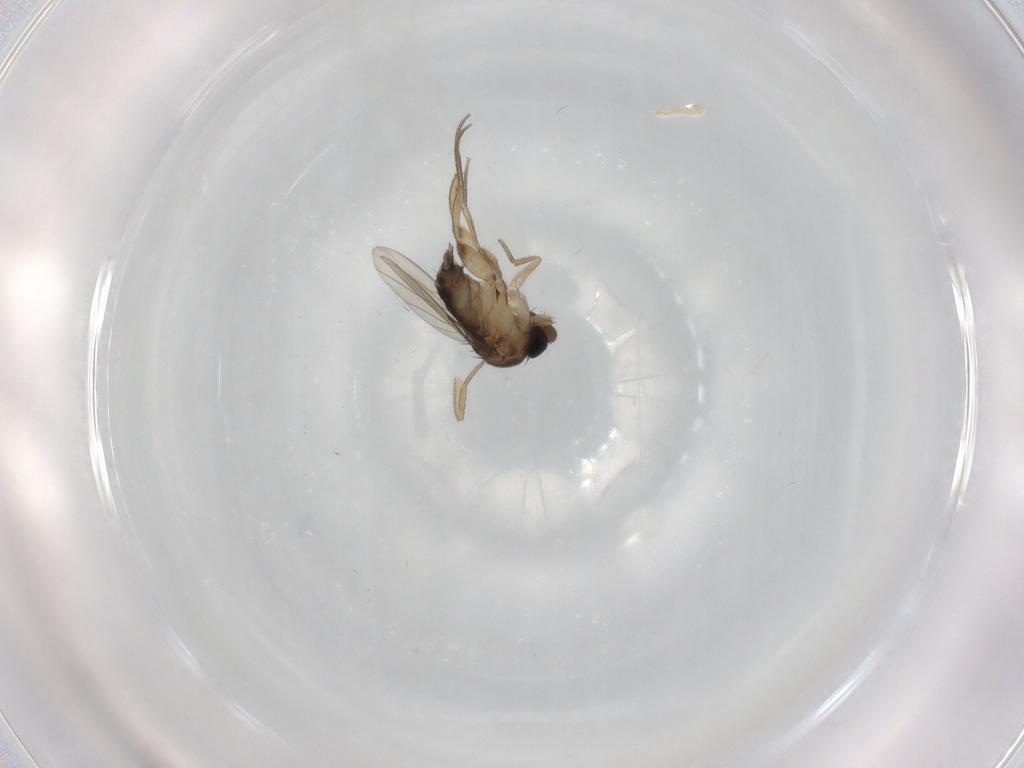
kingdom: Animalia
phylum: Arthropoda
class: Insecta
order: Diptera
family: Phoridae
